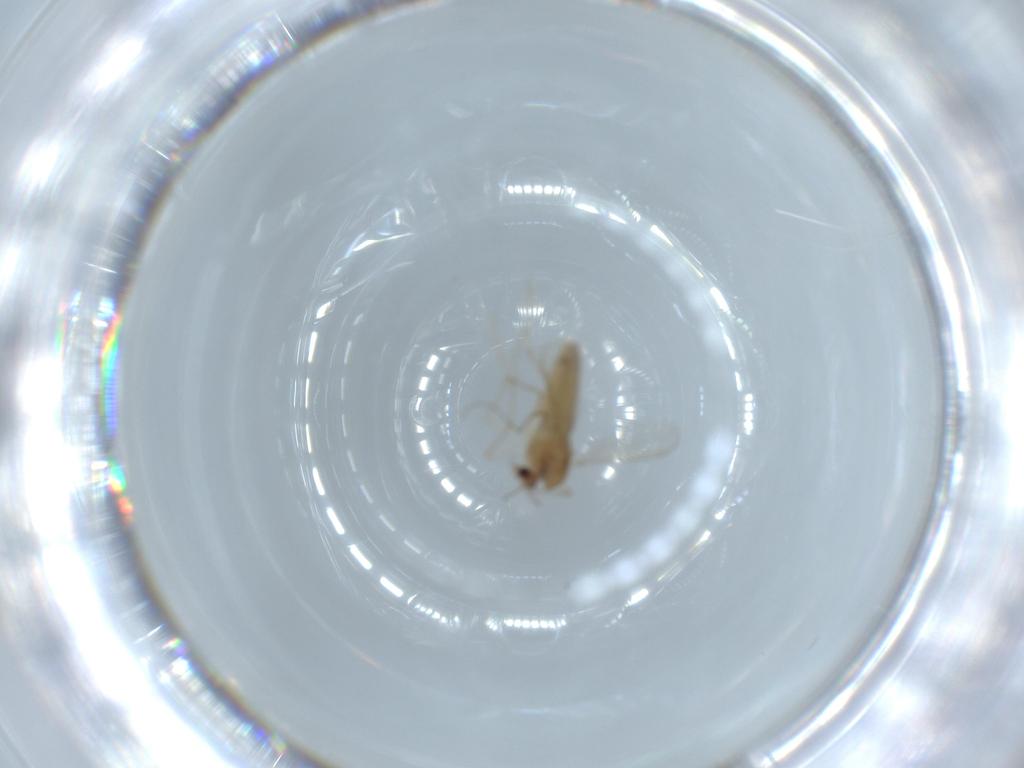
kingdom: Animalia
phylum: Arthropoda
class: Insecta
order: Diptera
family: Chironomidae
